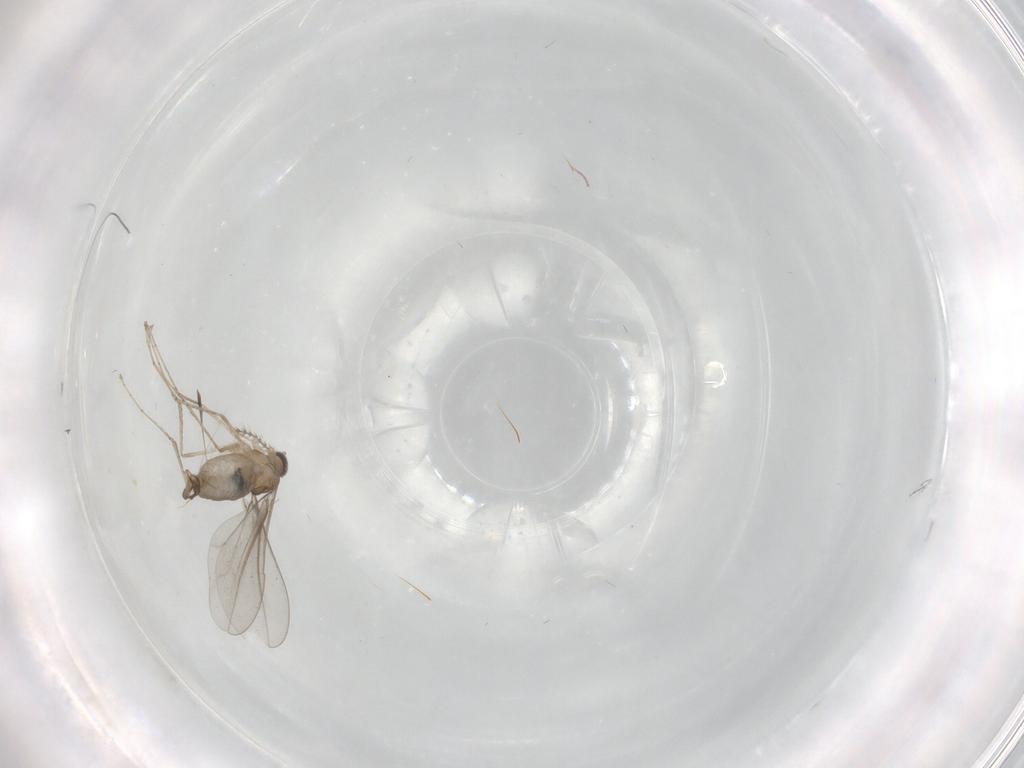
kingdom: Animalia
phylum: Arthropoda
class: Insecta
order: Diptera
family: Cecidomyiidae
